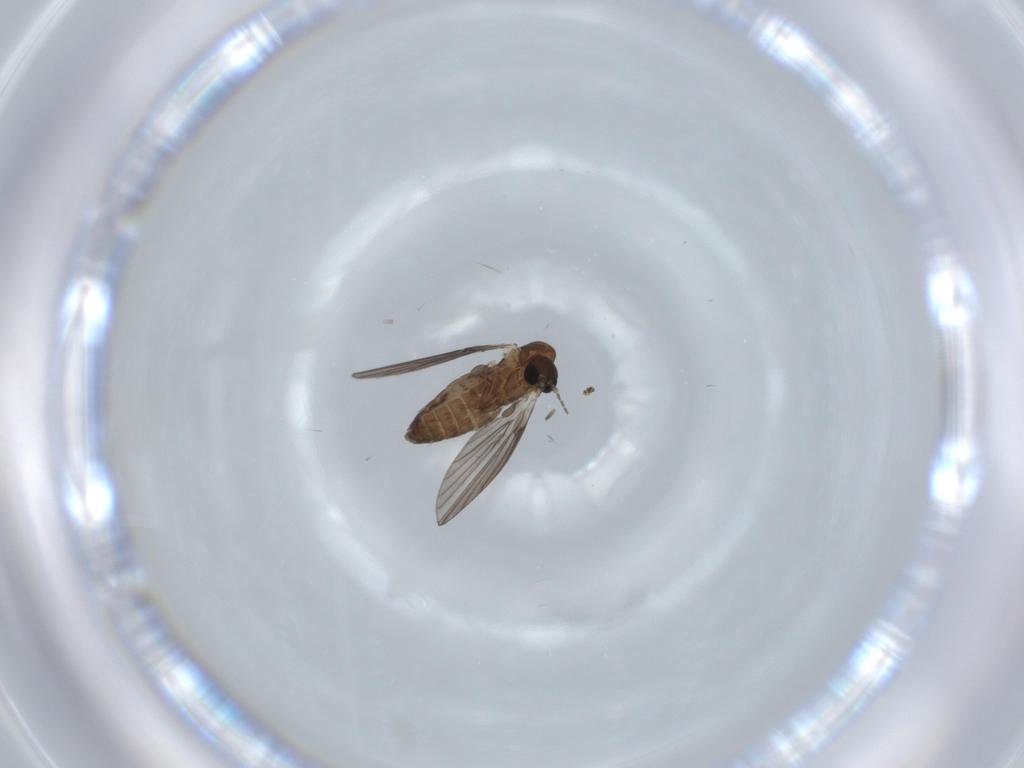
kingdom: Animalia
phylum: Arthropoda
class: Insecta
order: Diptera
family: Psychodidae
